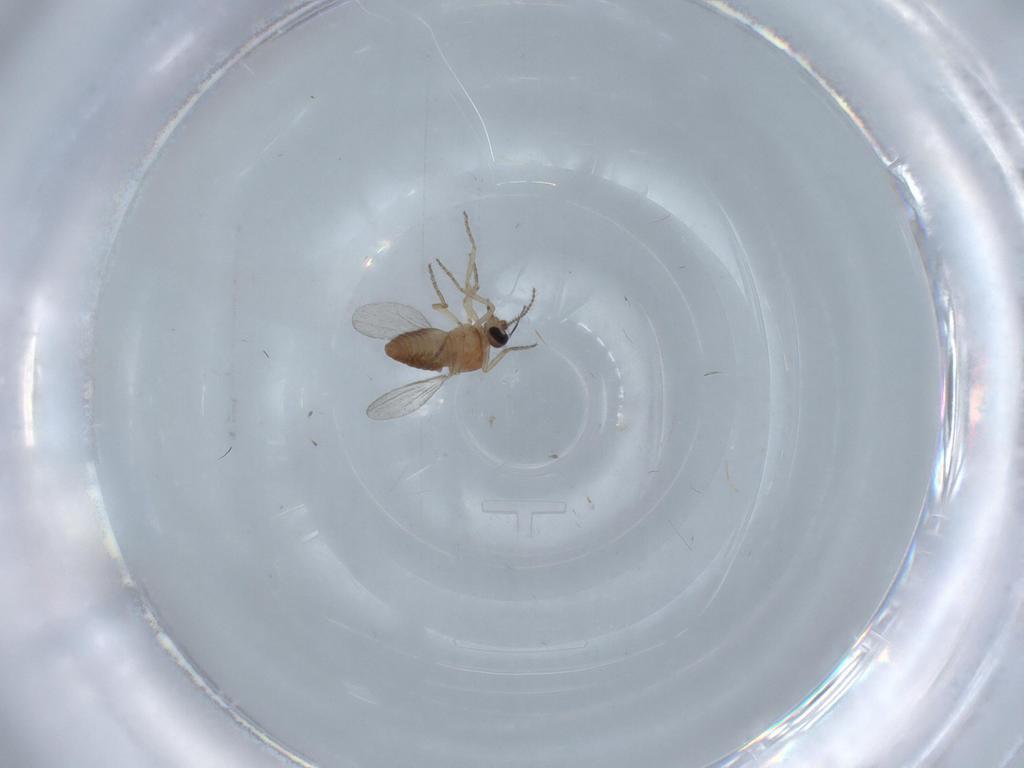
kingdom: Animalia
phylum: Arthropoda
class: Insecta
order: Diptera
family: Ceratopogonidae
